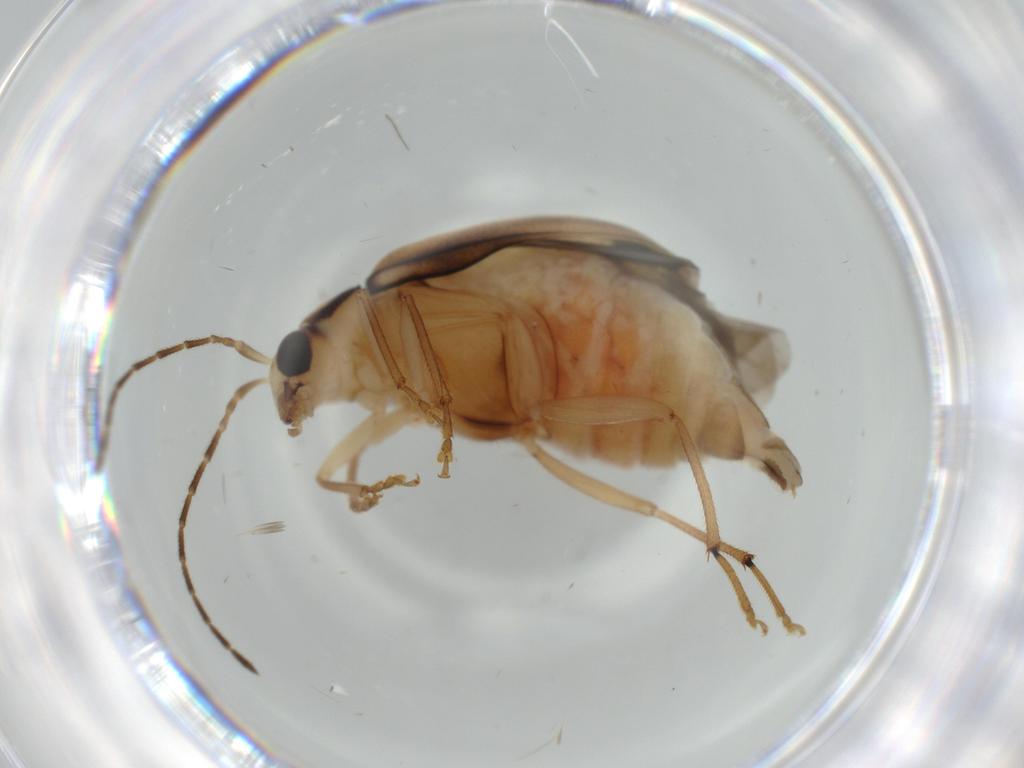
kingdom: Animalia
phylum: Arthropoda
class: Insecta
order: Coleoptera
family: Chrysomelidae
